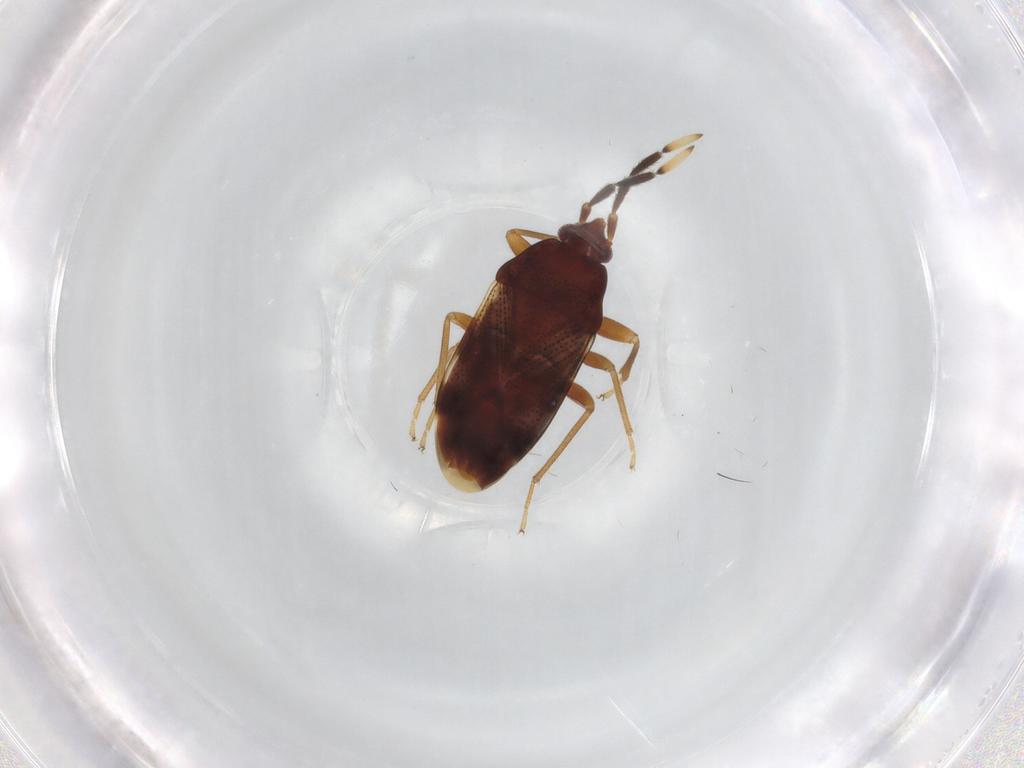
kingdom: Animalia
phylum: Arthropoda
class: Insecta
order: Hemiptera
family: Rhyparochromidae
